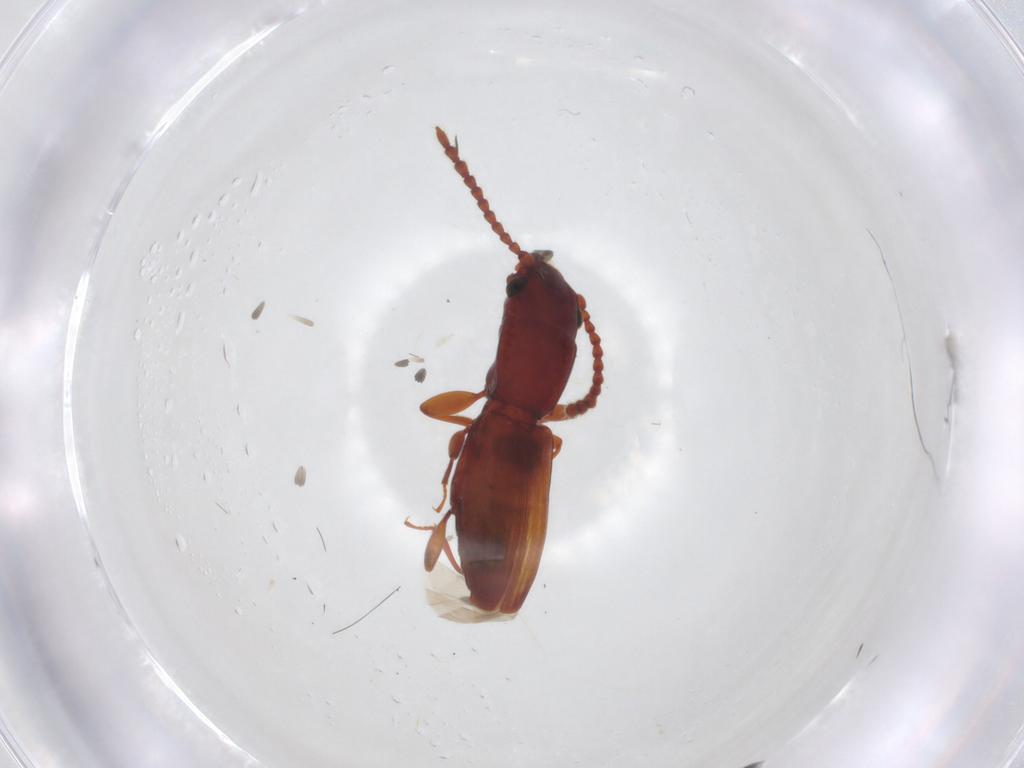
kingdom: Animalia
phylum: Arthropoda
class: Insecta
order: Coleoptera
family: Laemophloeidae
